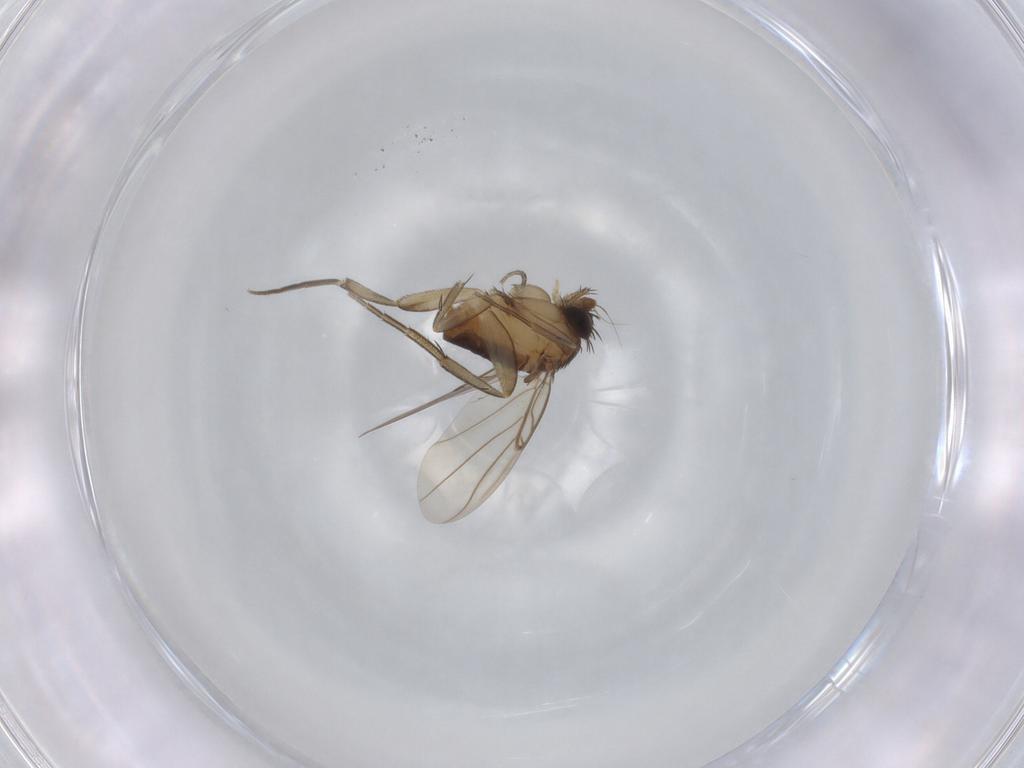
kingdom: Animalia
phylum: Arthropoda
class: Insecta
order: Diptera
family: Phoridae
